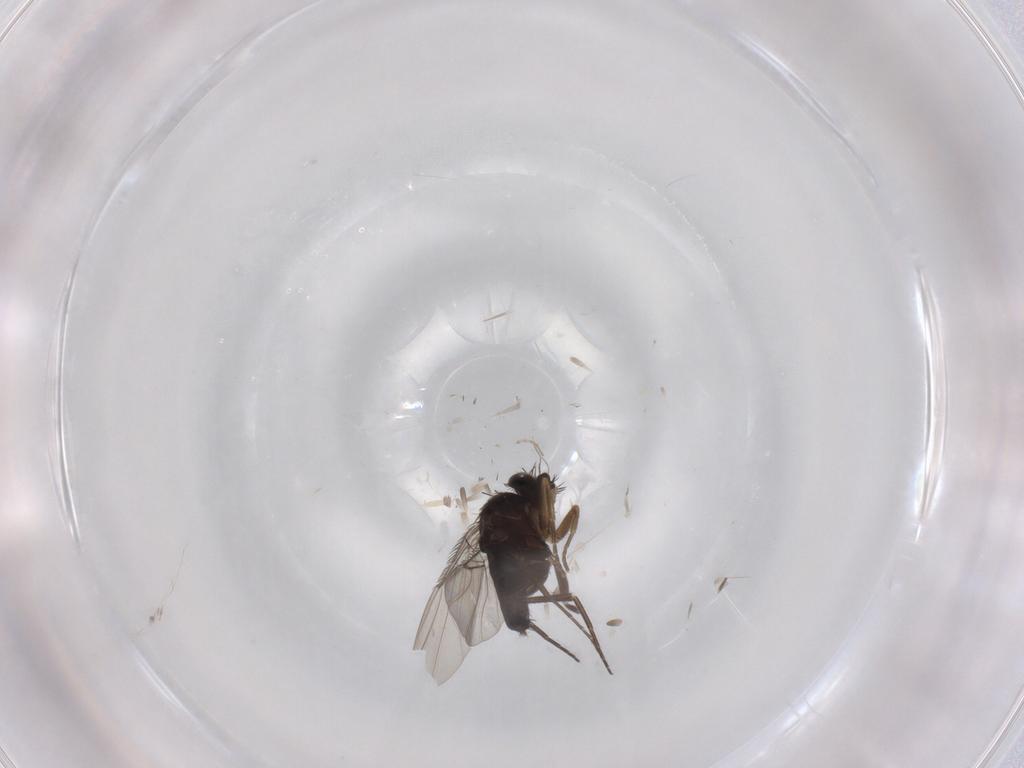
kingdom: Animalia
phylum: Arthropoda
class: Insecta
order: Diptera
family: Phoridae
